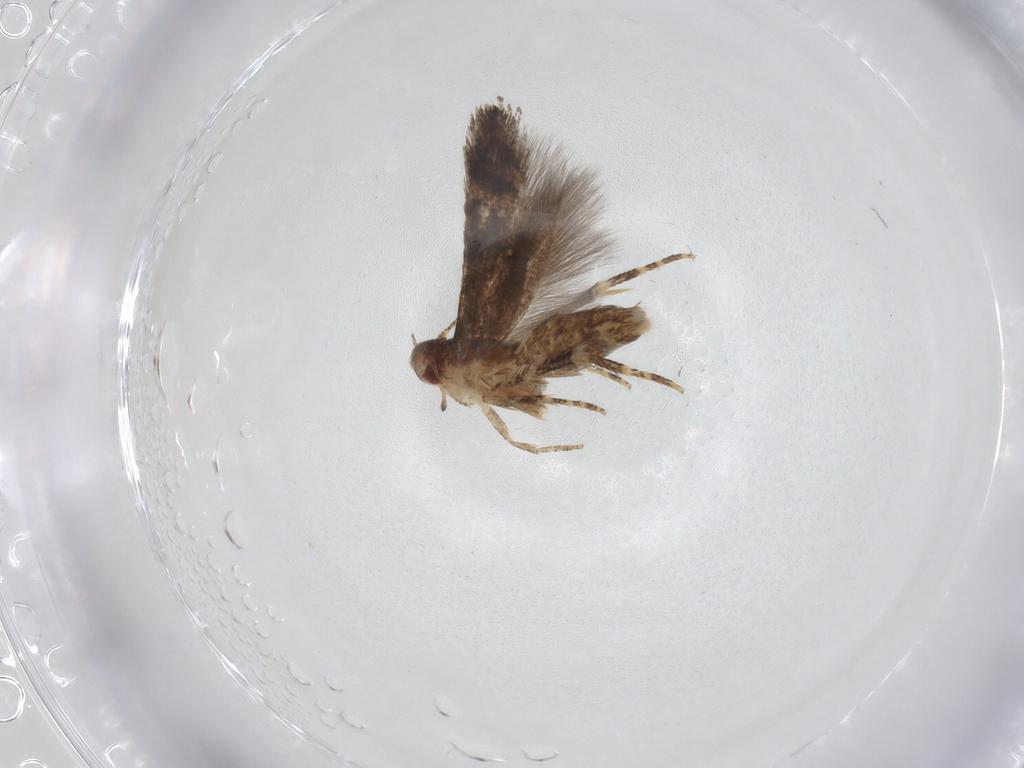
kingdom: Animalia
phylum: Arthropoda
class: Insecta
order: Lepidoptera
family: Momphidae
